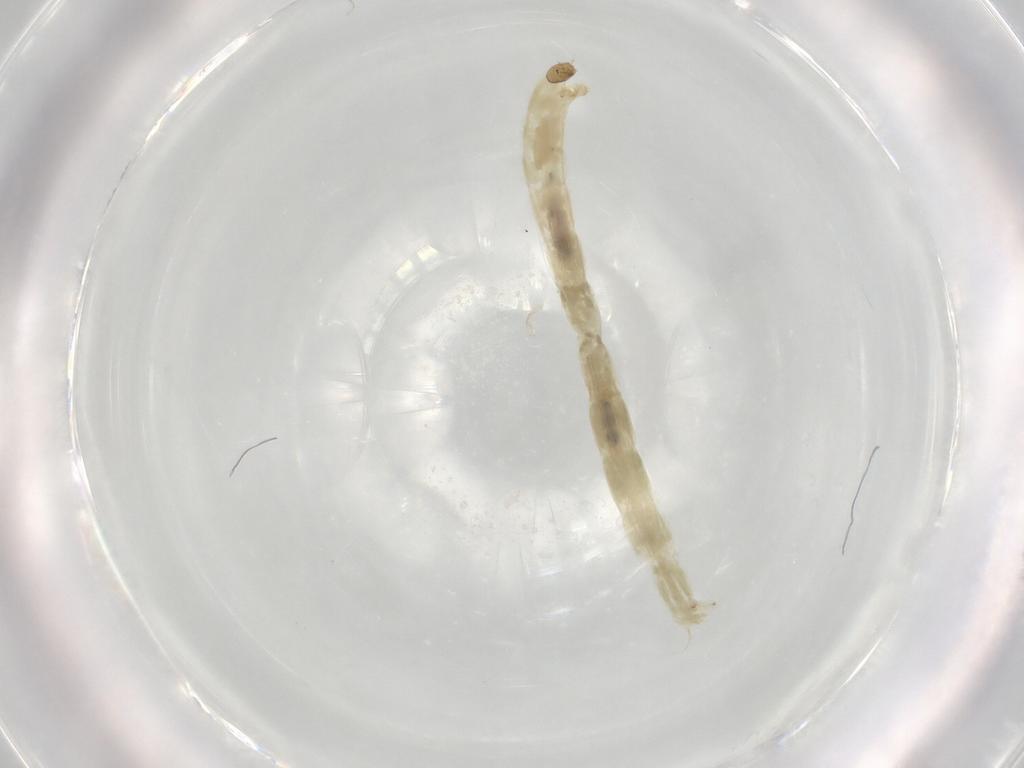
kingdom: Animalia
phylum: Arthropoda
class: Insecta
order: Diptera
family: Chironomidae
